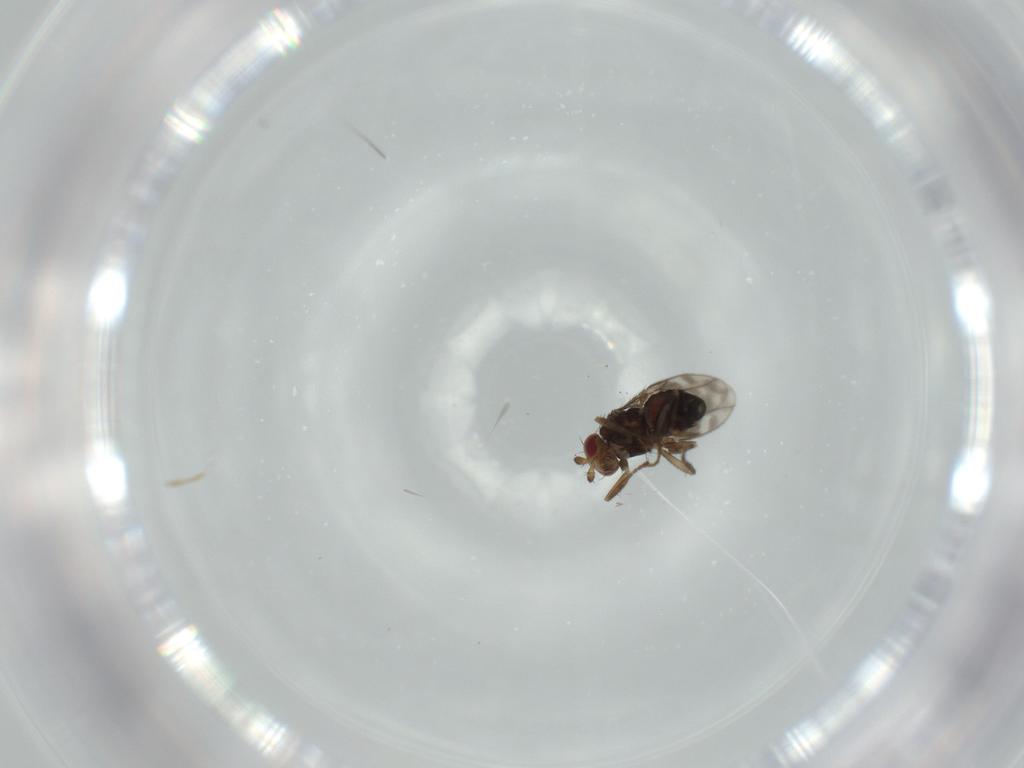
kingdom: Animalia
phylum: Arthropoda
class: Insecta
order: Diptera
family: Sphaeroceridae
